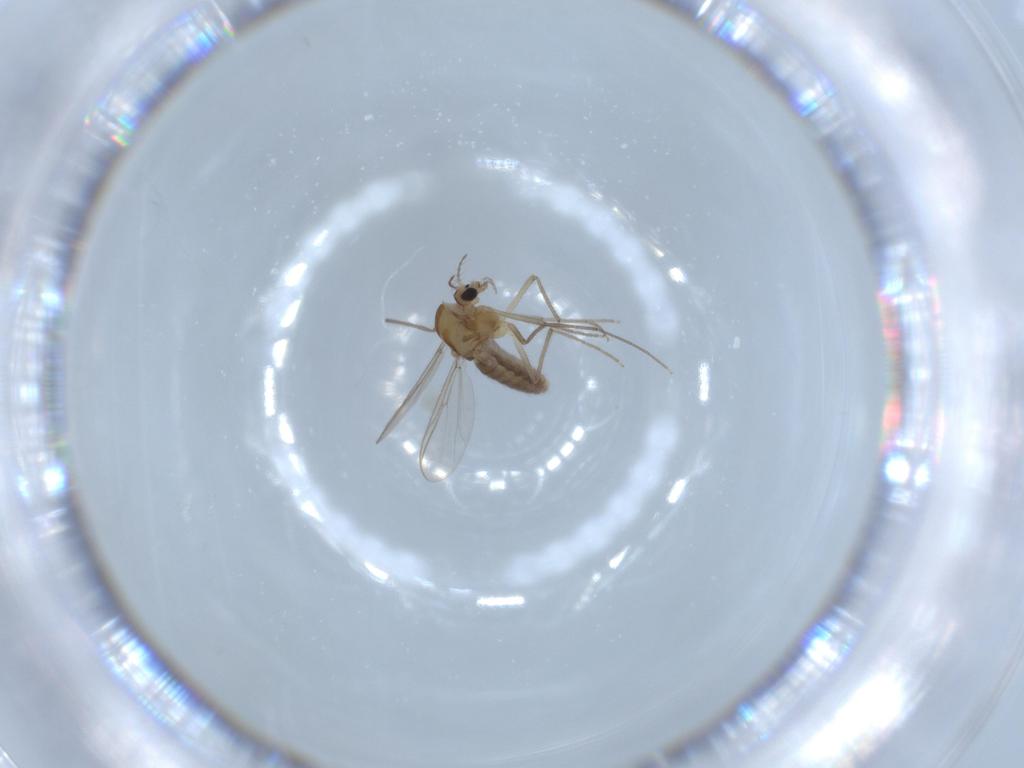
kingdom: Animalia
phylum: Arthropoda
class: Insecta
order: Diptera
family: Chironomidae
